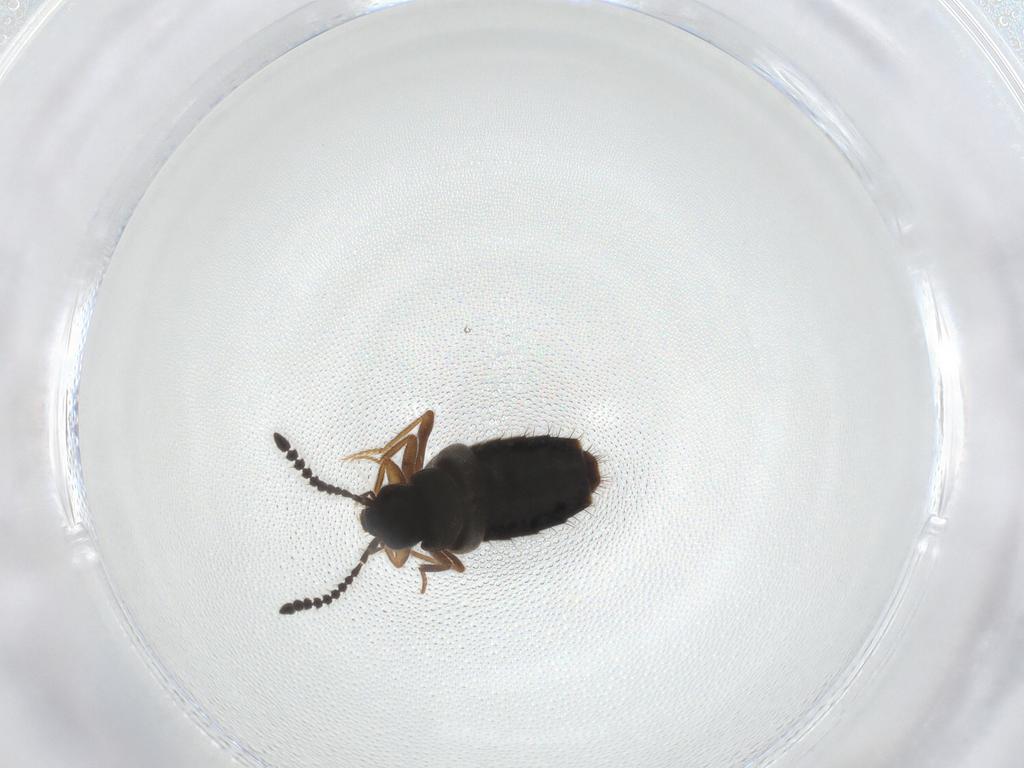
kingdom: Animalia
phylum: Arthropoda
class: Insecta
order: Coleoptera
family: Staphylinidae
